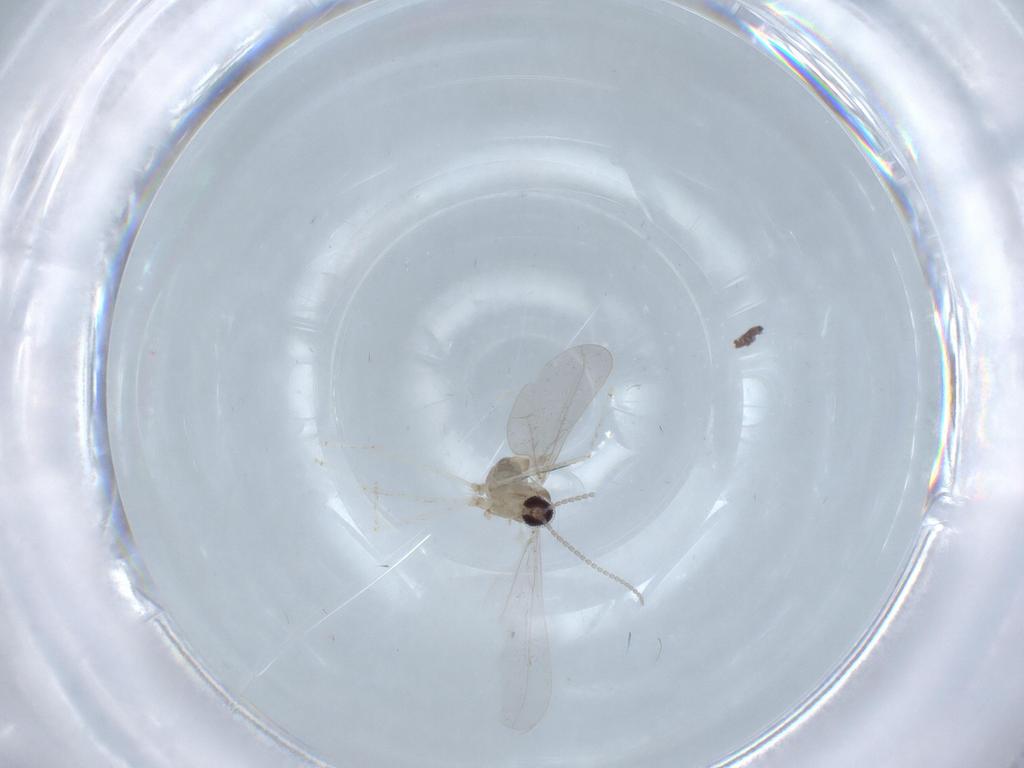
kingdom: Animalia
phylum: Arthropoda
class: Insecta
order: Diptera
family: Cecidomyiidae
